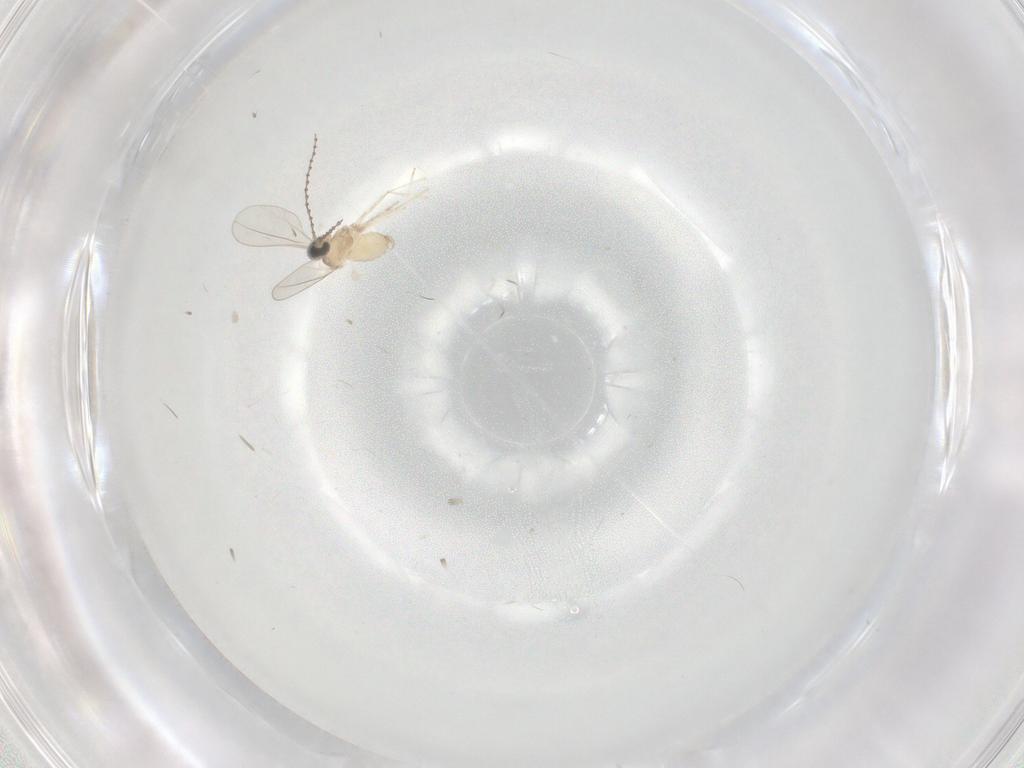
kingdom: Animalia
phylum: Arthropoda
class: Insecta
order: Diptera
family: Cecidomyiidae
